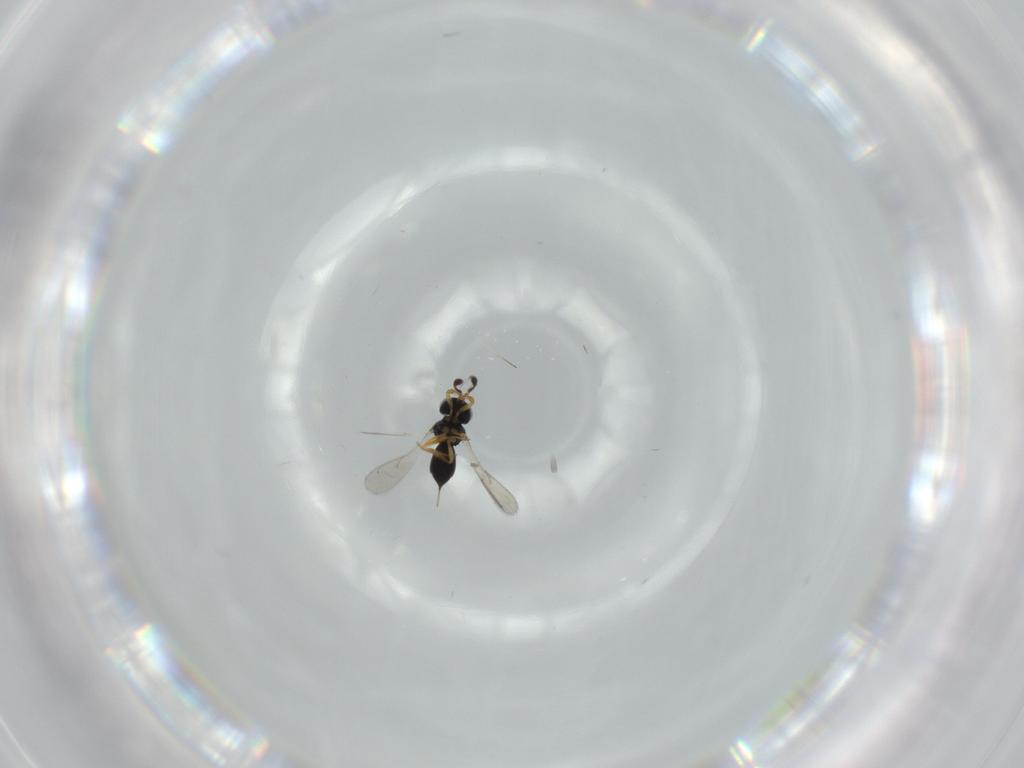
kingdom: Animalia
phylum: Arthropoda
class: Insecta
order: Hymenoptera
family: Scelionidae
